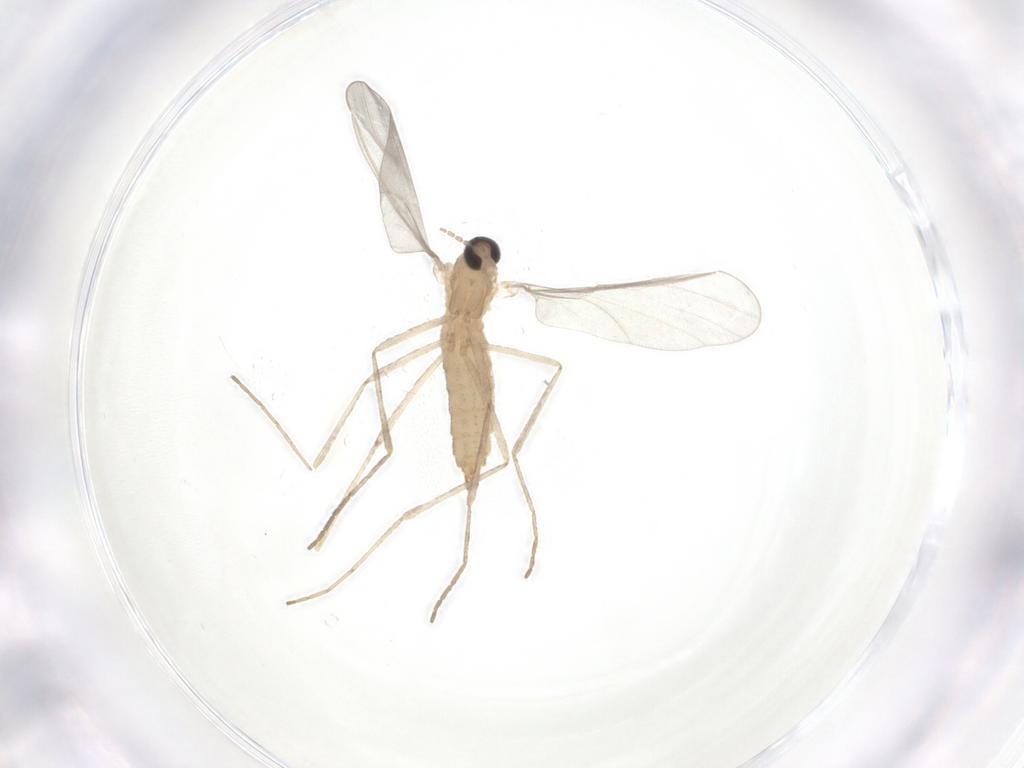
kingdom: Animalia
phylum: Arthropoda
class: Insecta
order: Diptera
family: Cecidomyiidae
